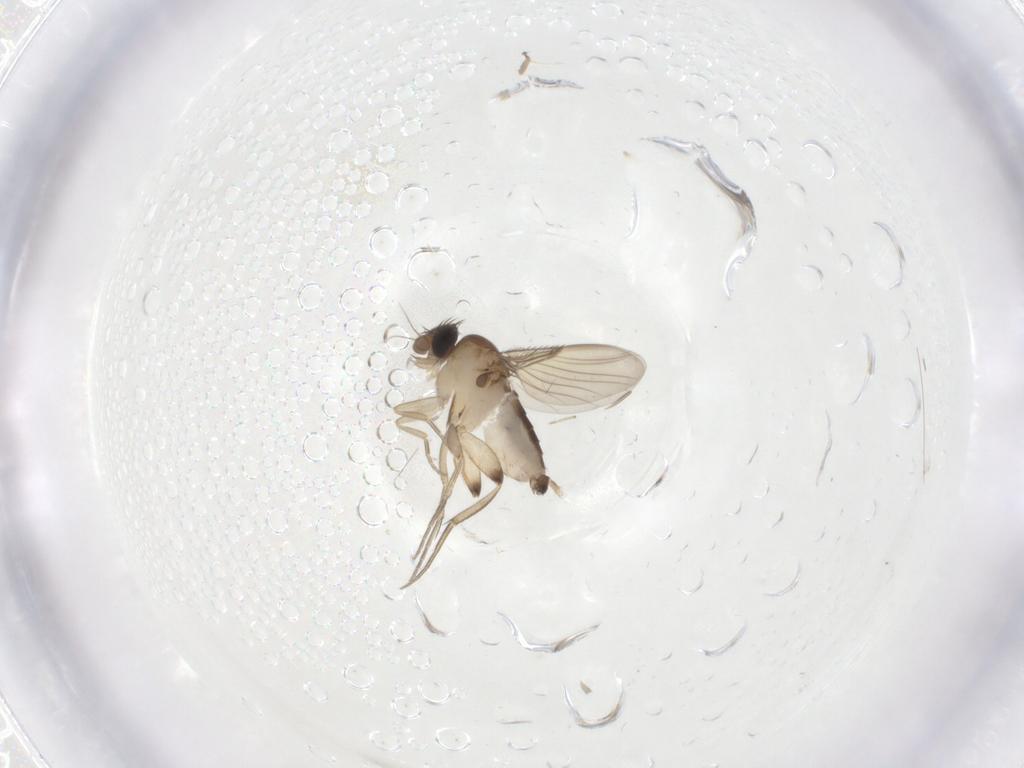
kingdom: Animalia
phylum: Arthropoda
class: Insecta
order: Diptera
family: Phoridae
